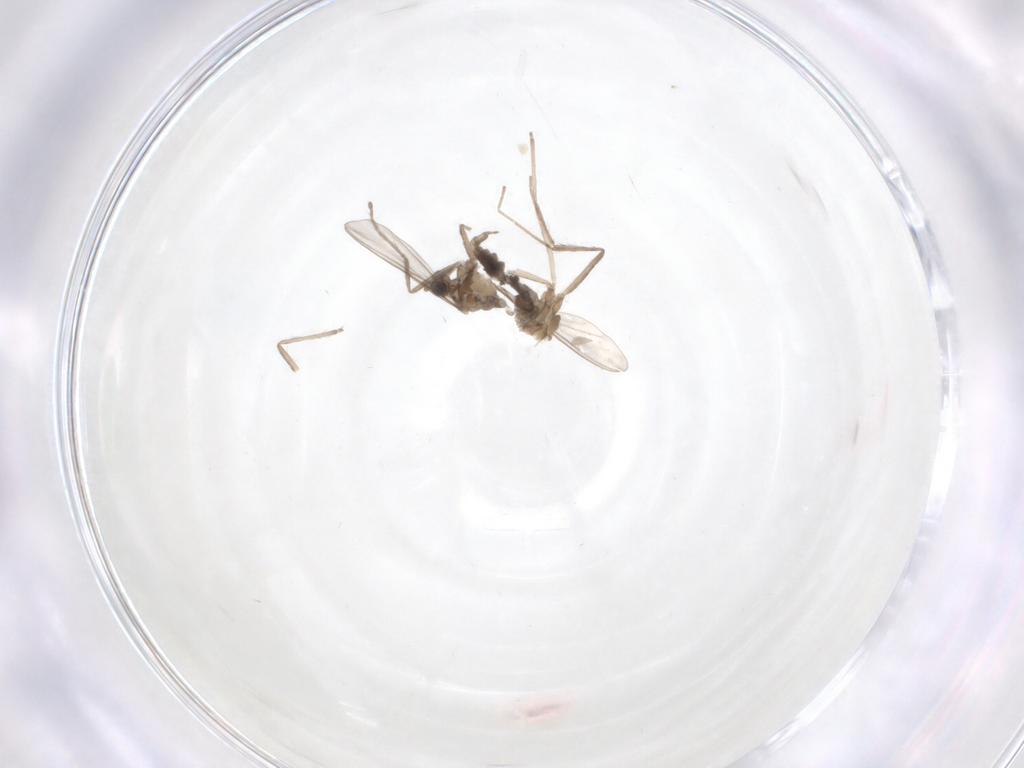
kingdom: Animalia
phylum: Arthropoda
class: Insecta
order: Diptera
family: Cecidomyiidae
